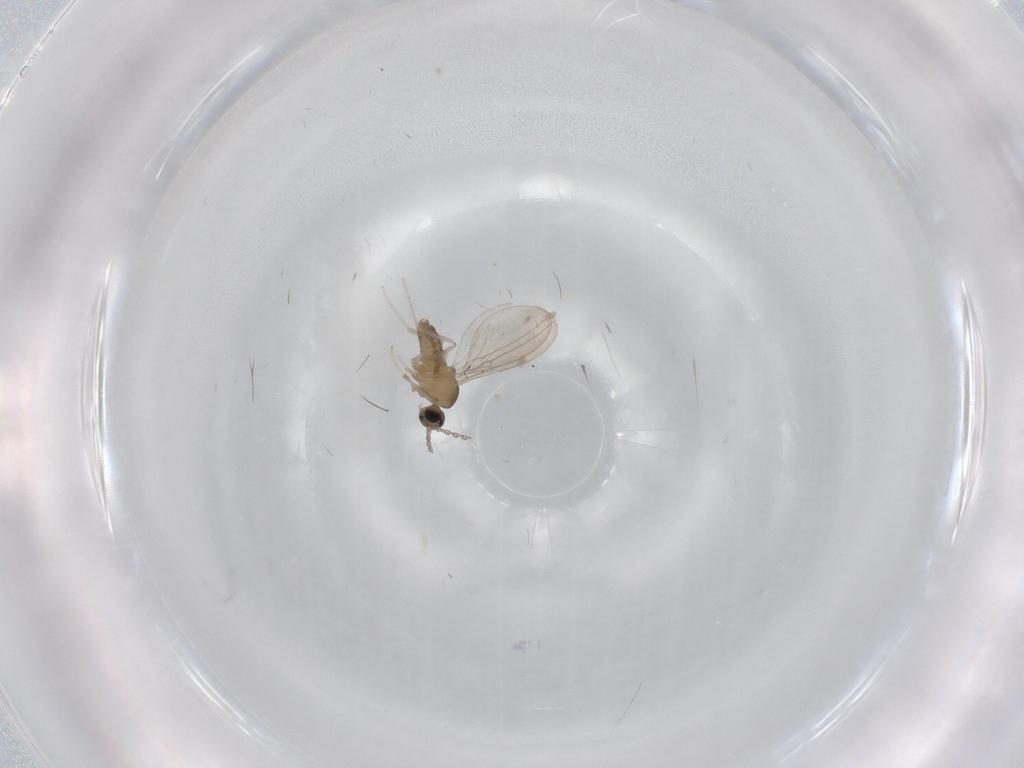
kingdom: Animalia
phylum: Arthropoda
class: Insecta
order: Diptera
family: Cecidomyiidae
